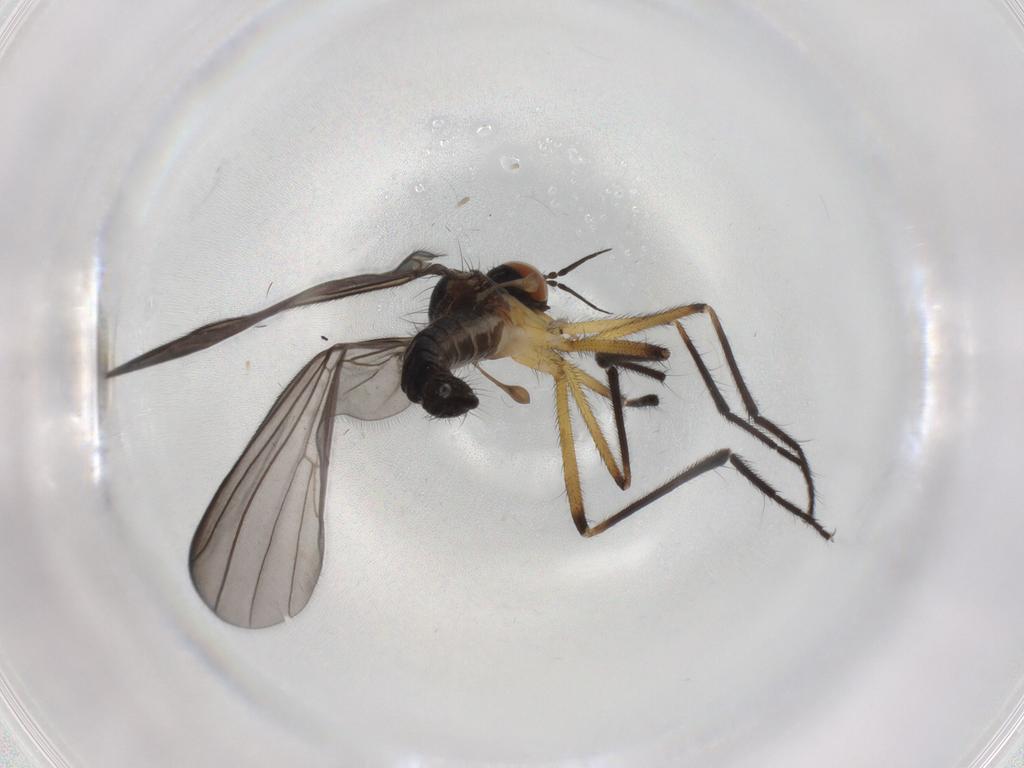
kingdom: Animalia
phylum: Arthropoda
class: Insecta
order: Diptera
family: Empididae
